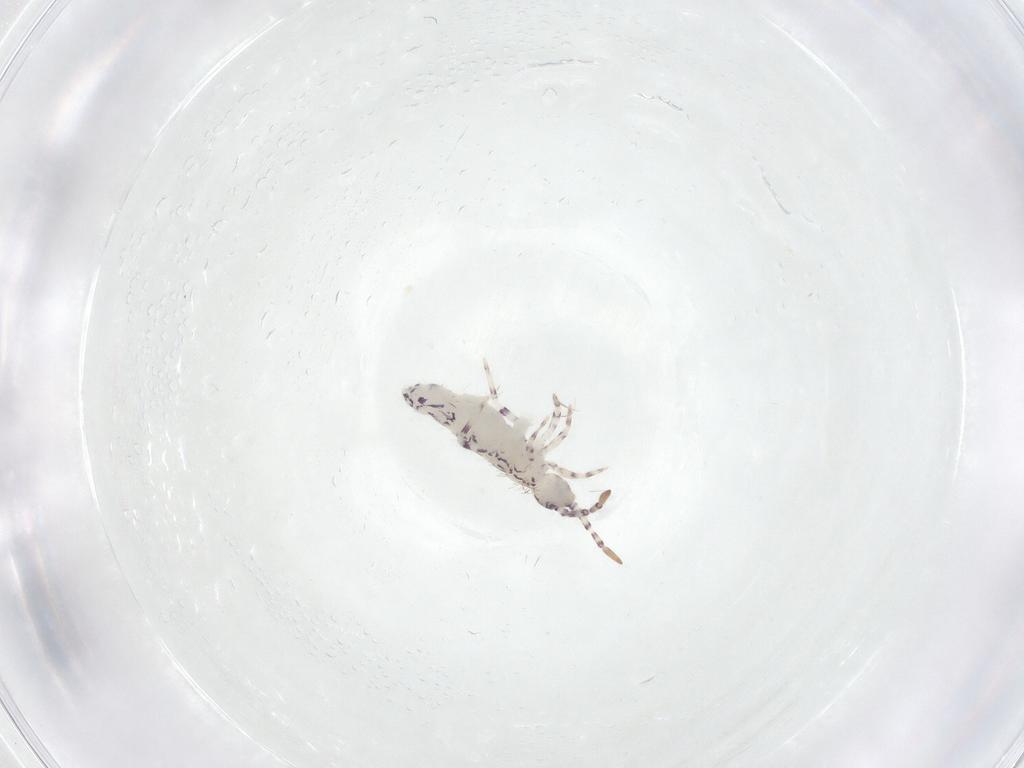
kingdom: Animalia
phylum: Arthropoda
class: Collembola
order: Entomobryomorpha
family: Entomobryidae
